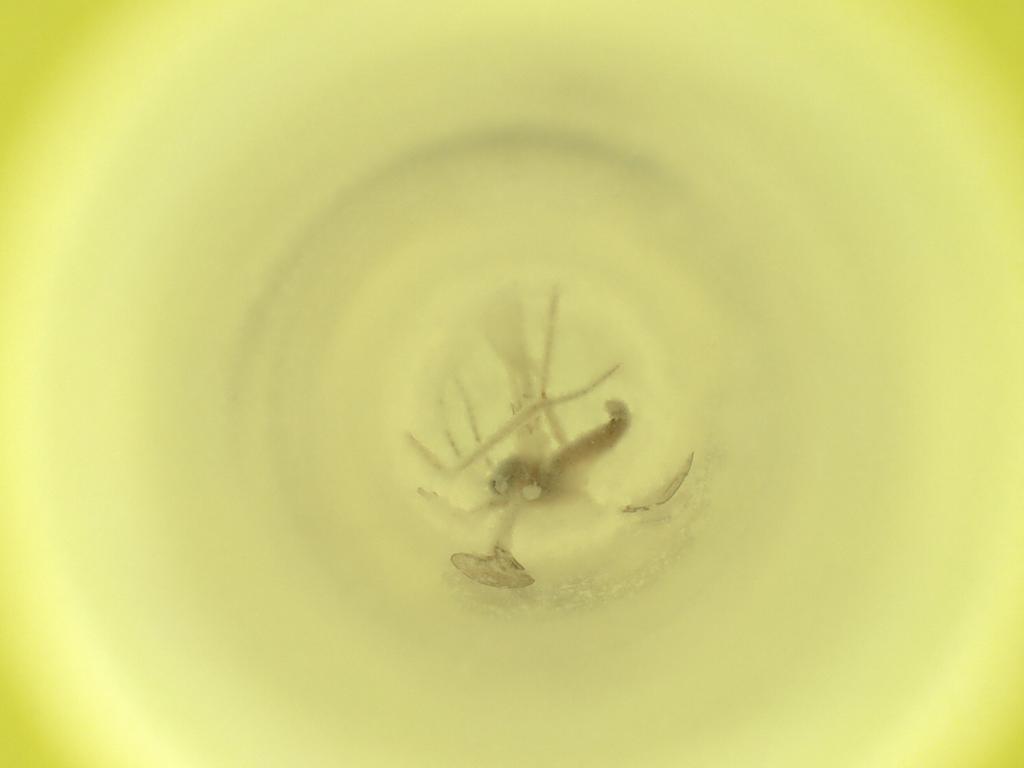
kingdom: Animalia
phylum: Arthropoda
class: Insecta
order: Diptera
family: Cecidomyiidae
